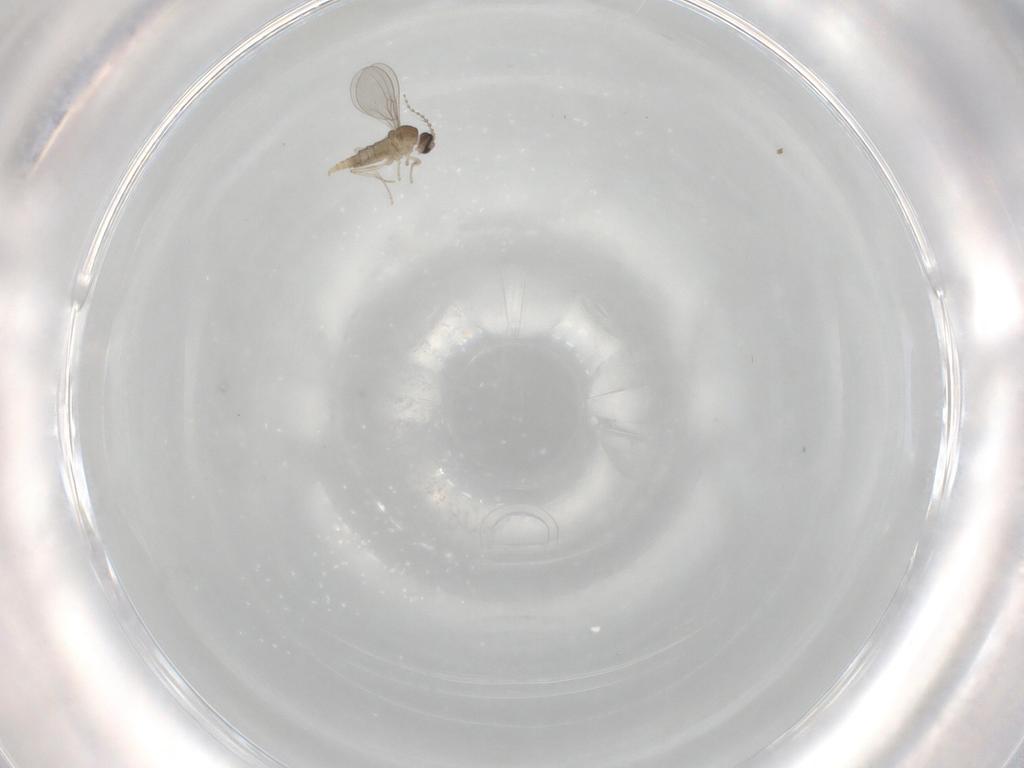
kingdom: Animalia
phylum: Arthropoda
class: Insecta
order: Diptera
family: Cecidomyiidae
